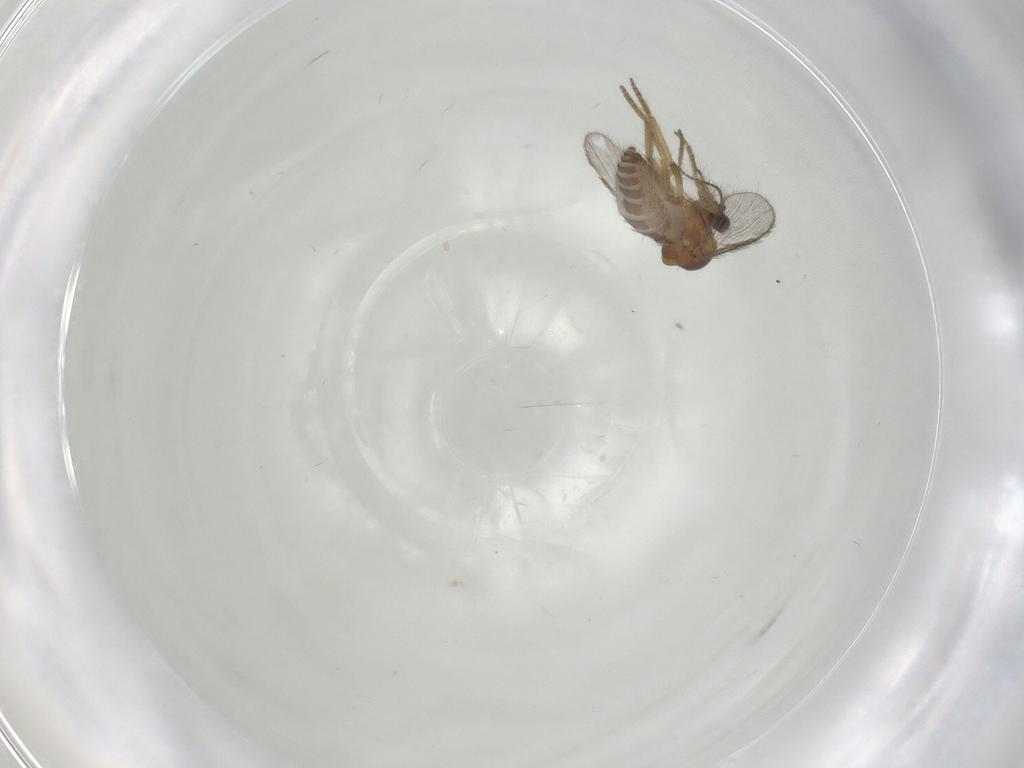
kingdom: Animalia
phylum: Arthropoda
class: Insecta
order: Diptera
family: Ceratopogonidae
